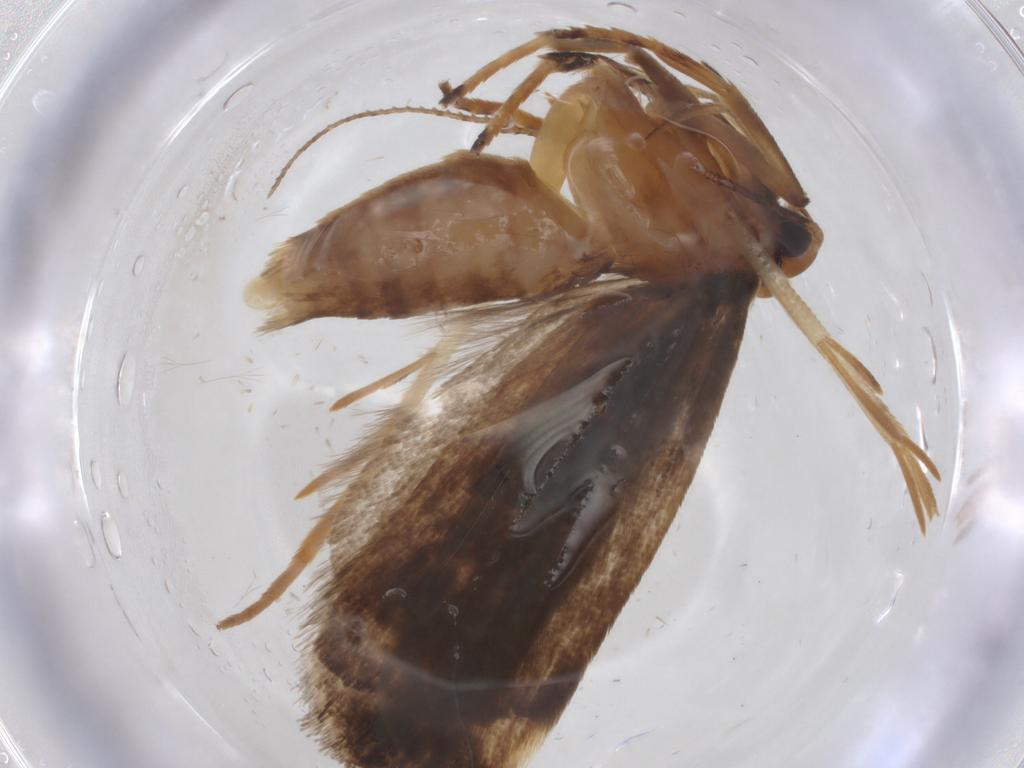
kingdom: Animalia
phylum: Arthropoda
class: Insecta
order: Lepidoptera
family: Gelechiidae
